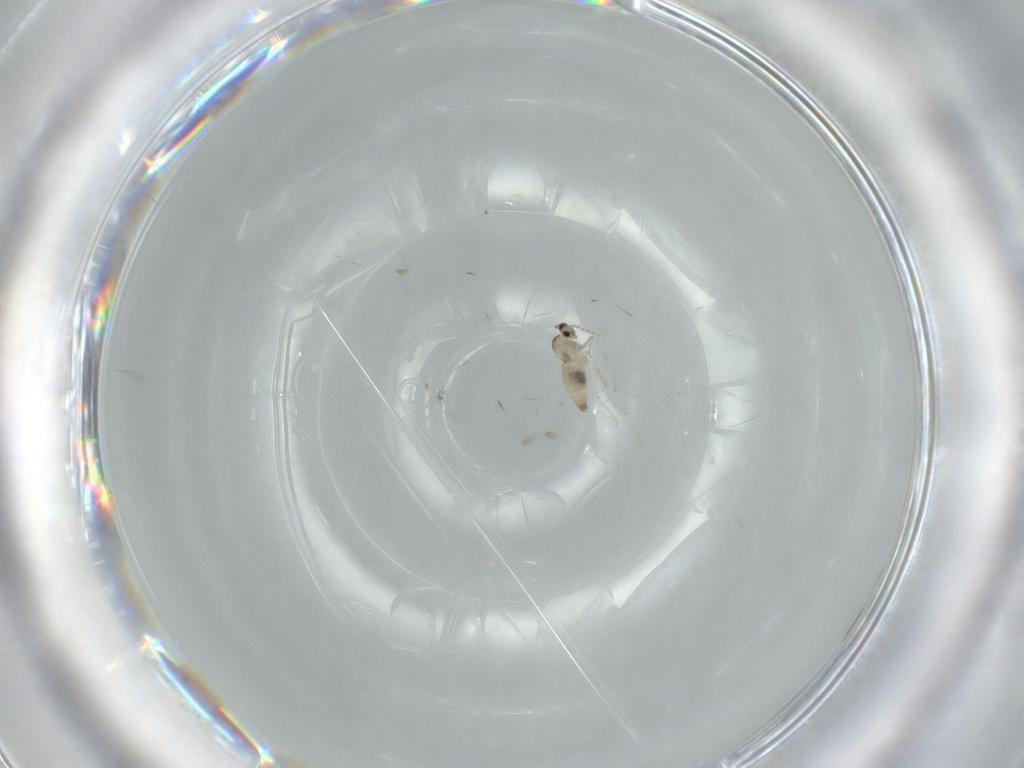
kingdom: Animalia
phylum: Arthropoda
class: Insecta
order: Diptera
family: Cecidomyiidae
